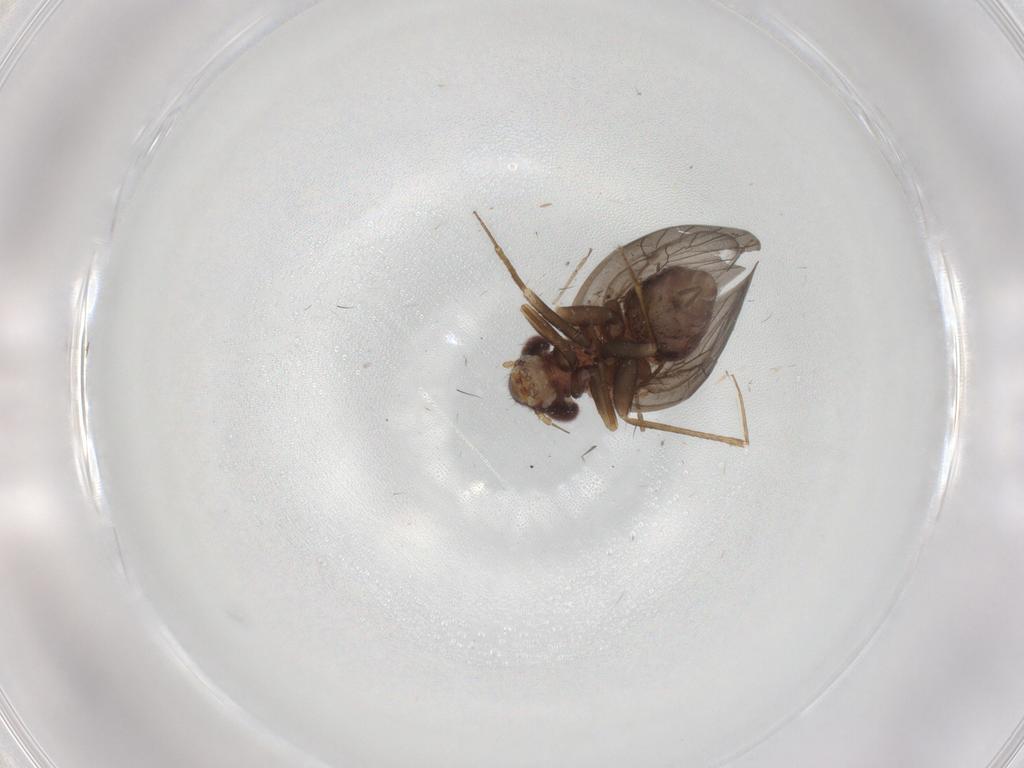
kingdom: Animalia
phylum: Arthropoda
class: Insecta
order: Psocodea
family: Lepidopsocidae
